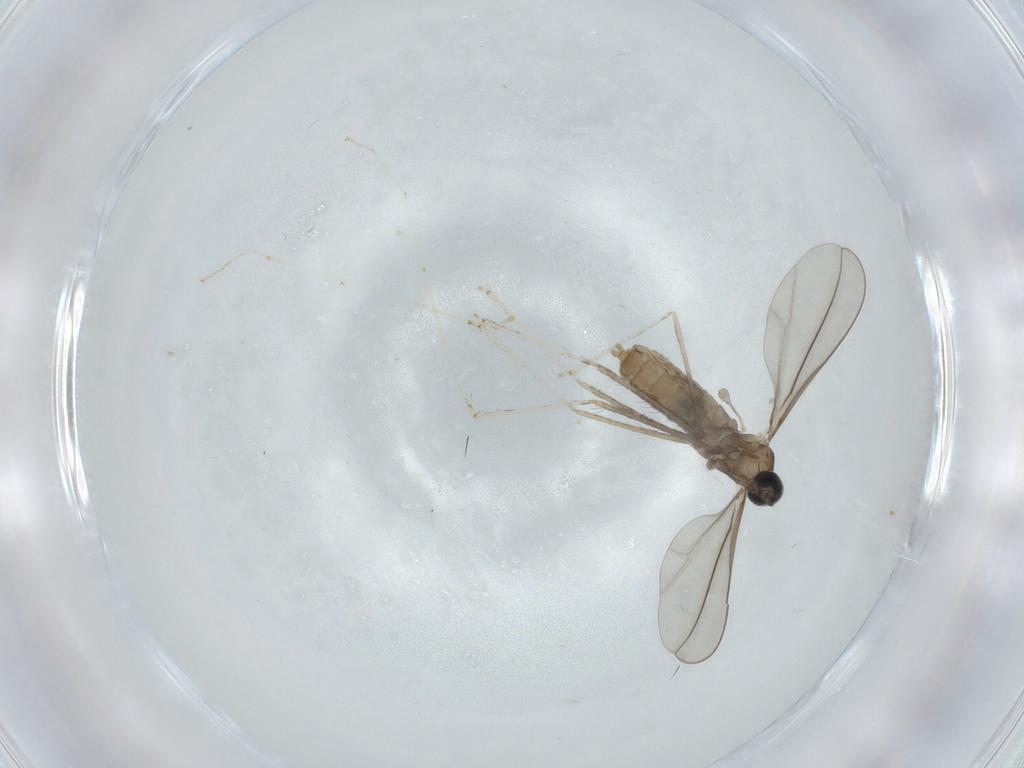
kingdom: Animalia
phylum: Arthropoda
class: Insecta
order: Diptera
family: Cecidomyiidae
